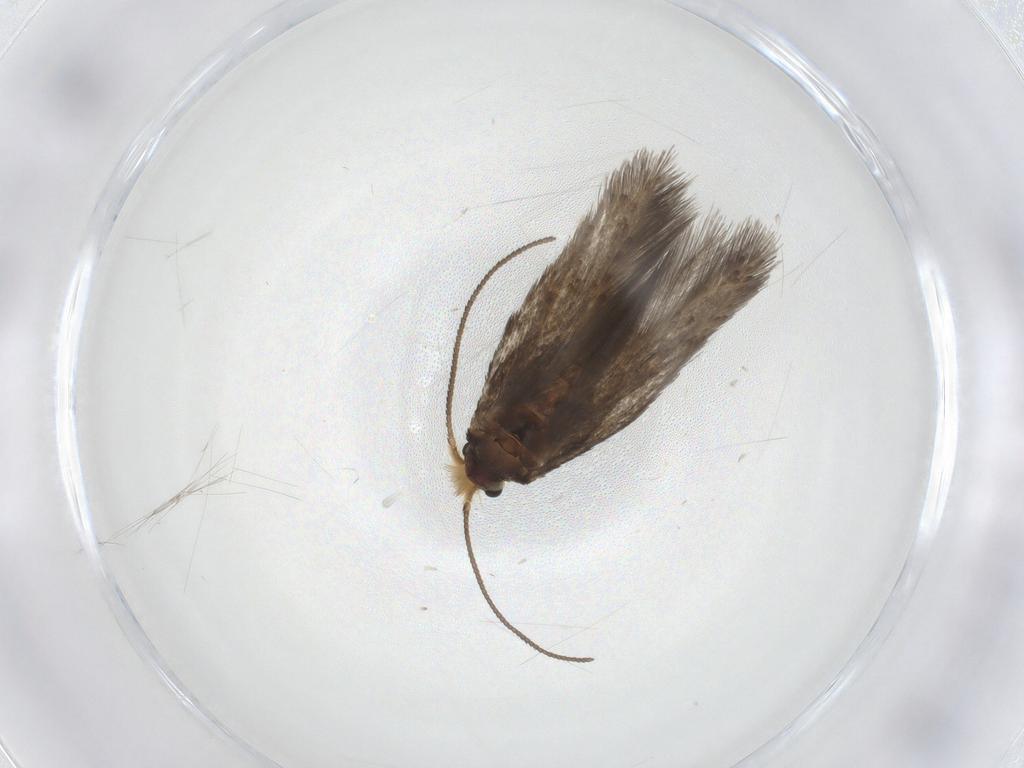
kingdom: Animalia
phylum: Arthropoda
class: Insecta
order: Lepidoptera
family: Nepticulidae
